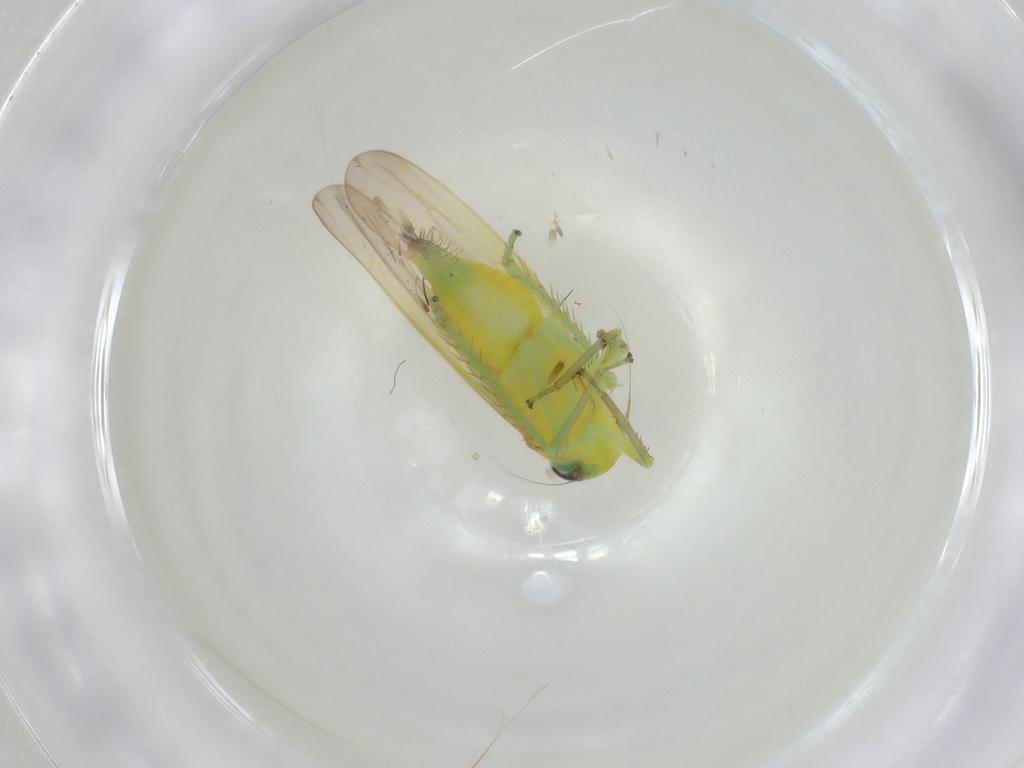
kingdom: Animalia
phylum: Arthropoda
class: Insecta
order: Hemiptera
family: Cicadellidae
